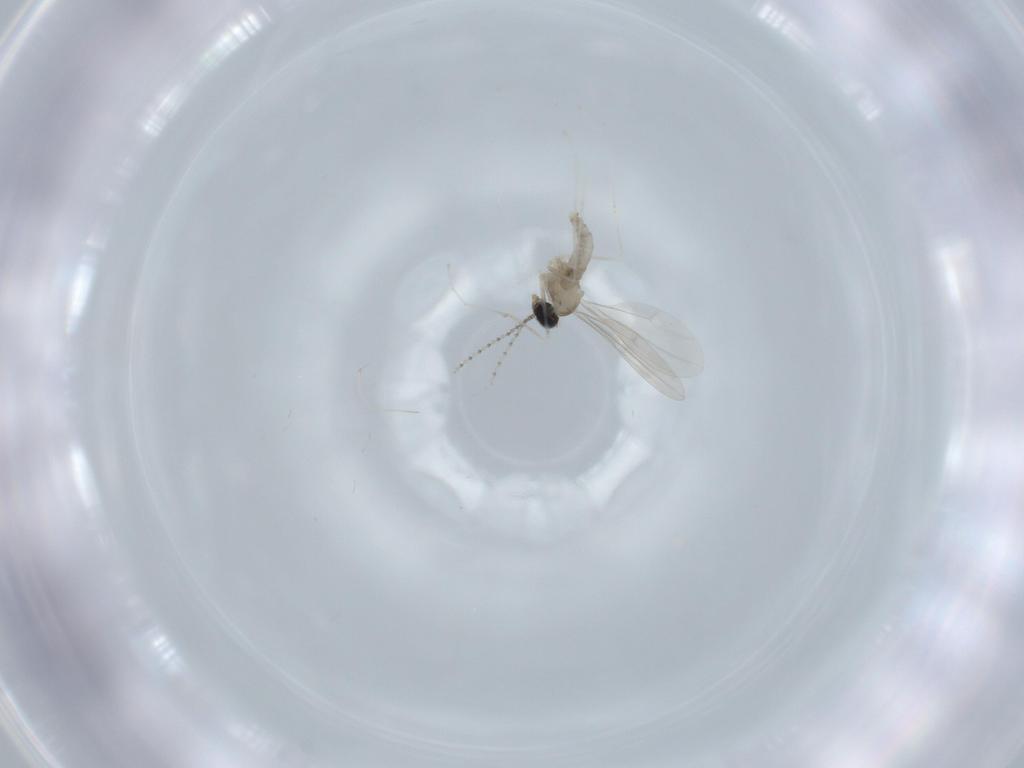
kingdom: Animalia
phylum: Arthropoda
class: Insecta
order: Diptera
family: Cecidomyiidae
